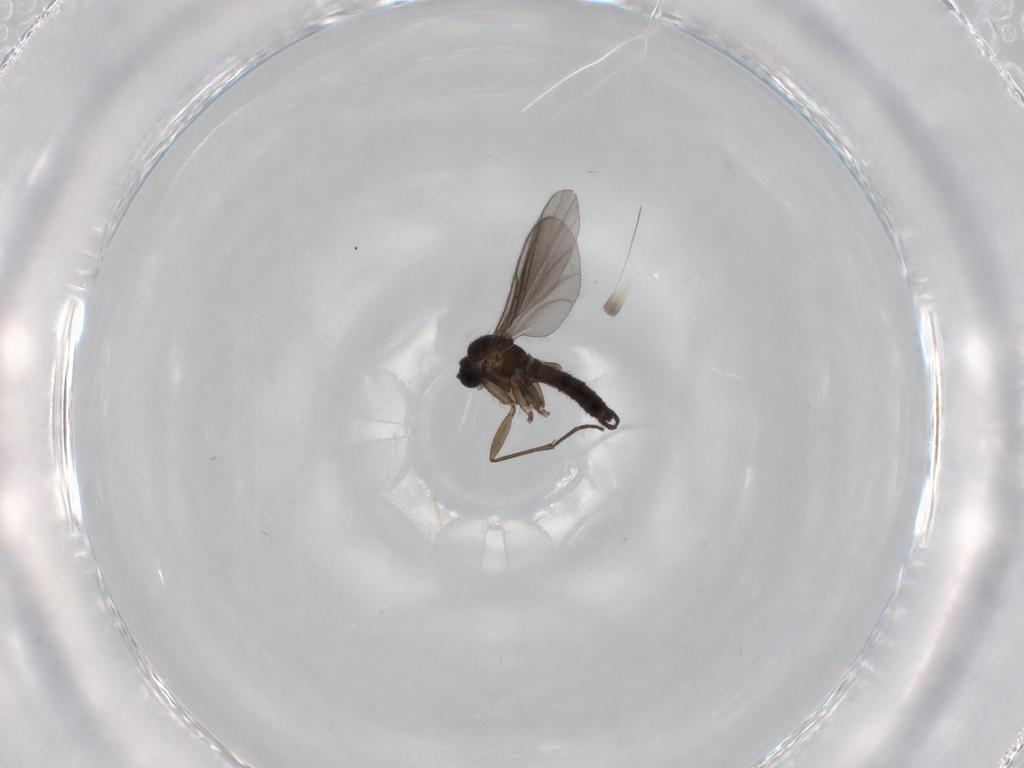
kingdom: Animalia
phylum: Arthropoda
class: Insecta
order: Diptera
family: Sciaridae
